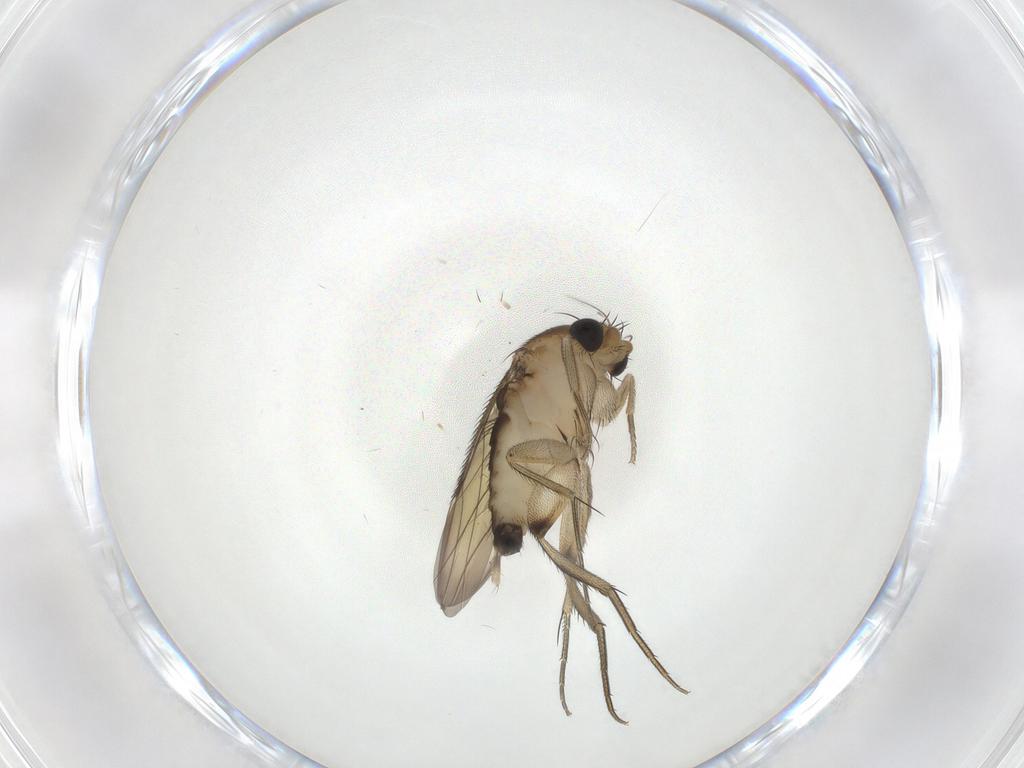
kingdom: Animalia
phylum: Arthropoda
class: Insecta
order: Diptera
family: Phoridae
